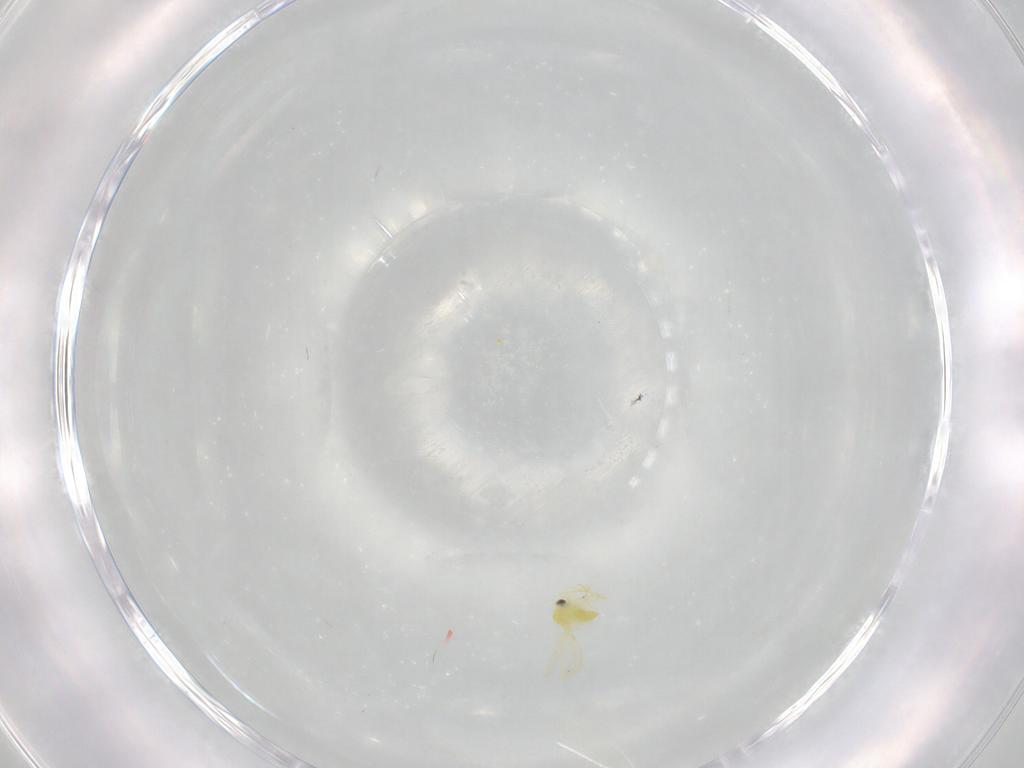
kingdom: Animalia
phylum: Arthropoda
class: Insecta
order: Hemiptera
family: Aleyrodidae
